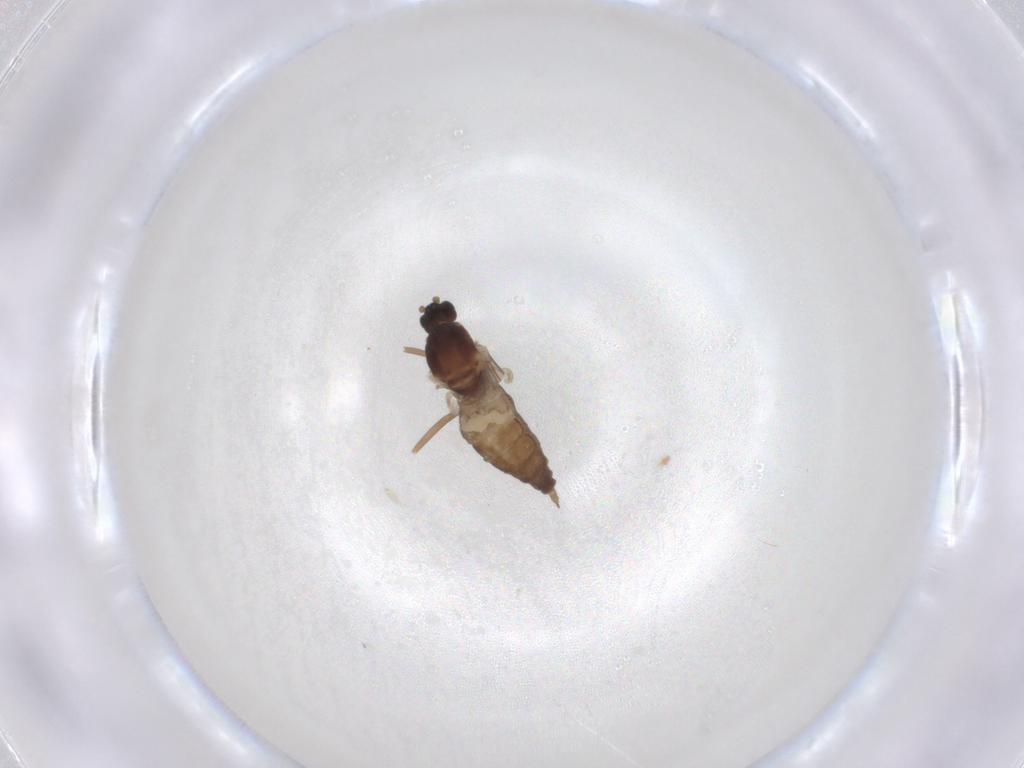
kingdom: Animalia
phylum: Arthropoda
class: Insecta
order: Diptera
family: Cecidomyiidae
